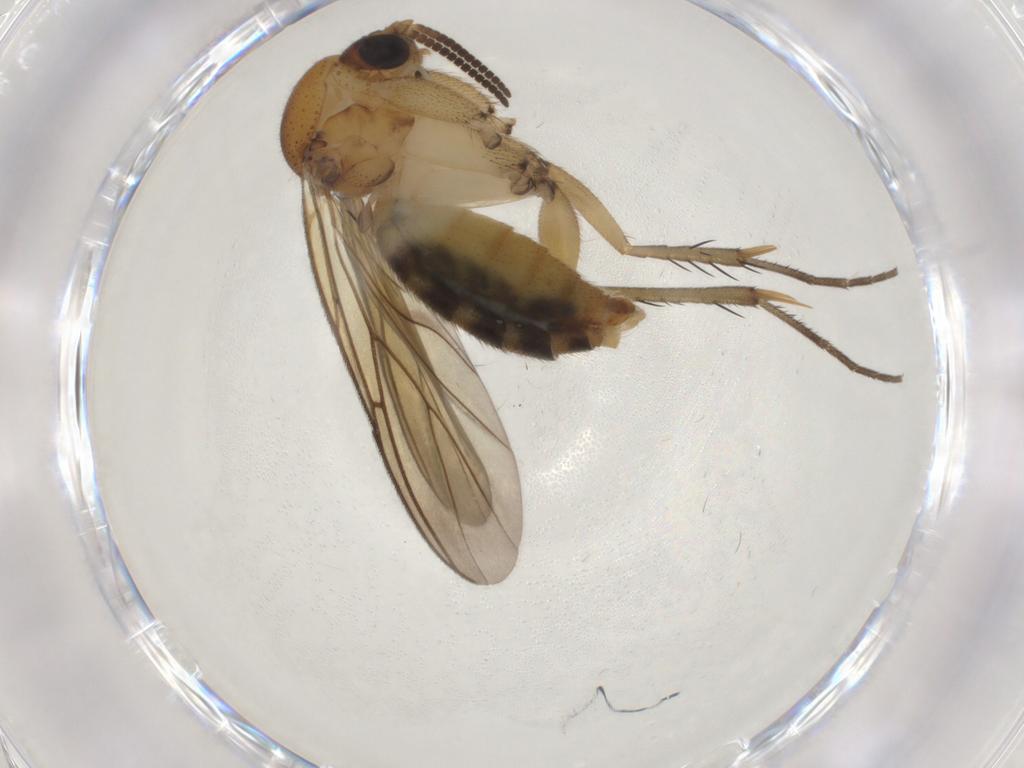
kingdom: Animalia
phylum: Arthropoda
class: Insecta
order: Diptera
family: Mycetophilidae
